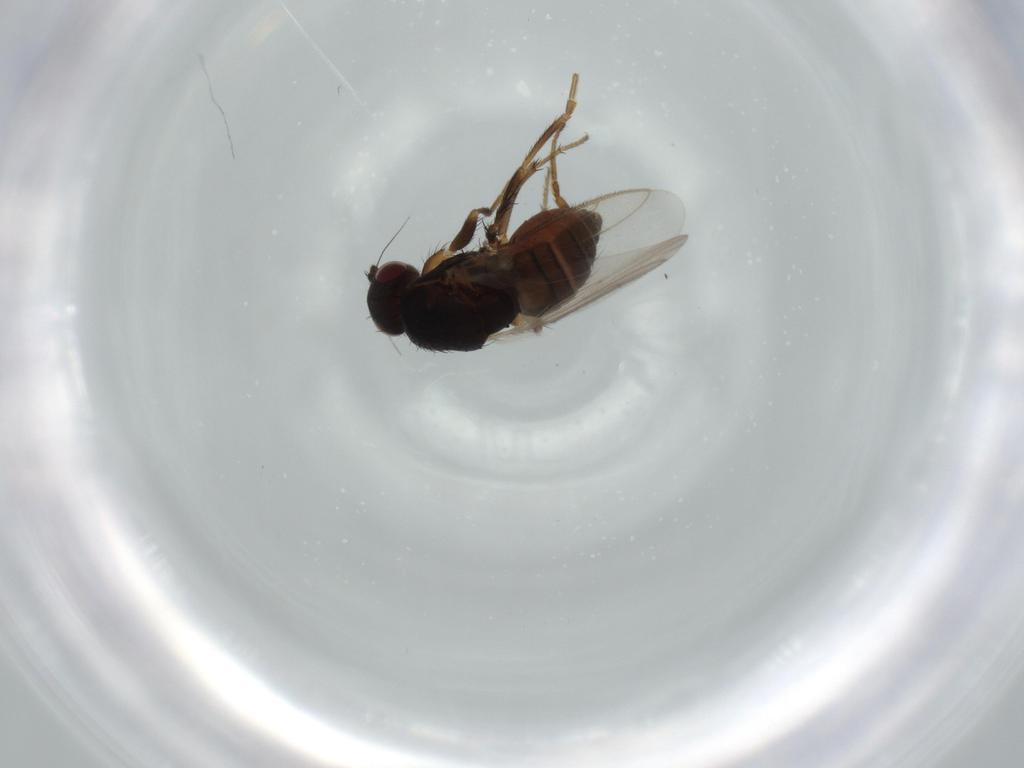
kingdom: Animalia
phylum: Arthropoda
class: Insecta
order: Diptera
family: Sphaeroceridae
